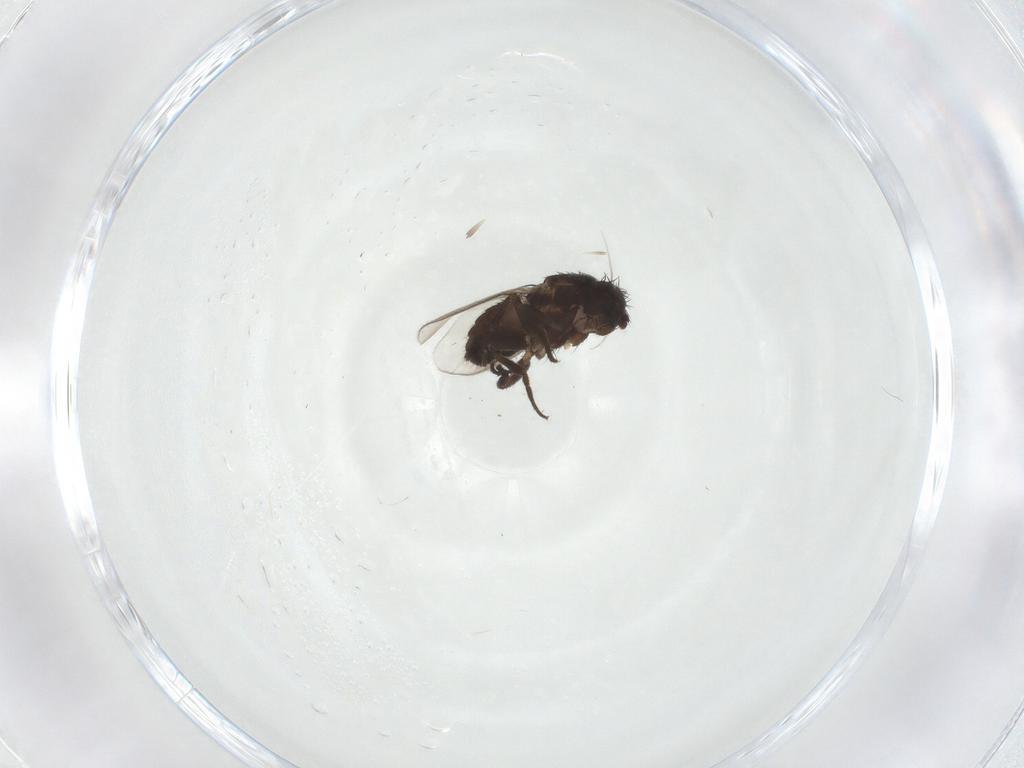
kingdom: Animalia
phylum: Arthropoda
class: Insecta
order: Diptera
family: Sphaeroceridae
